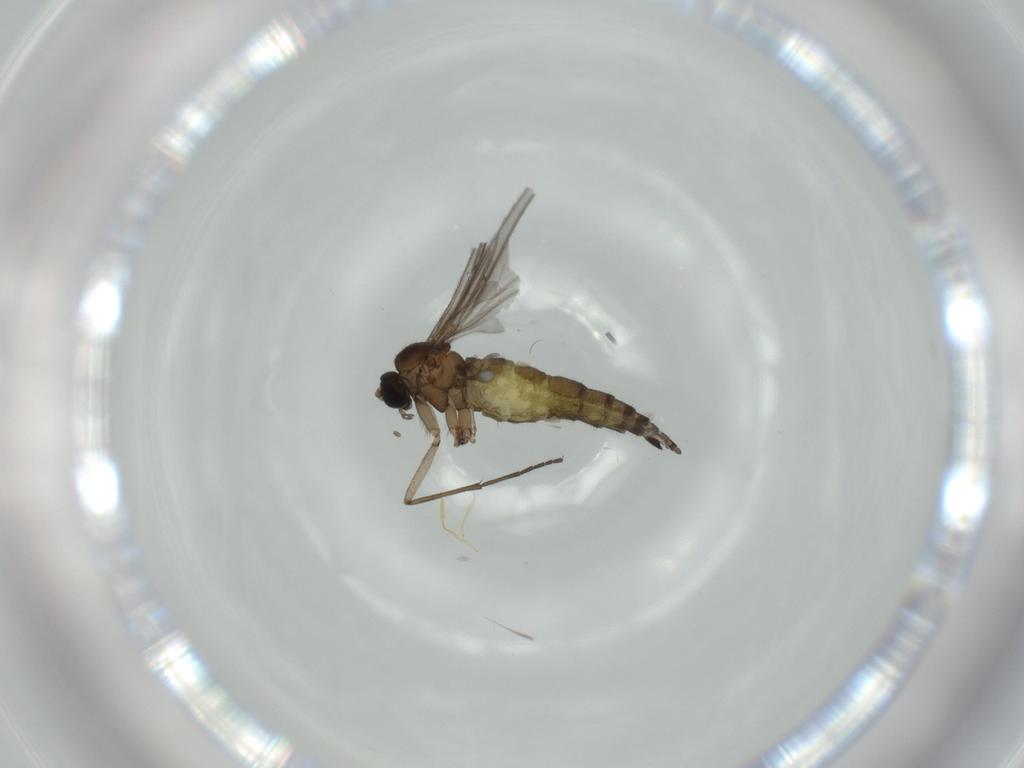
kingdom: Animalia
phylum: Arthropoda
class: Insecta
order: Diptera
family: Sciaridae
